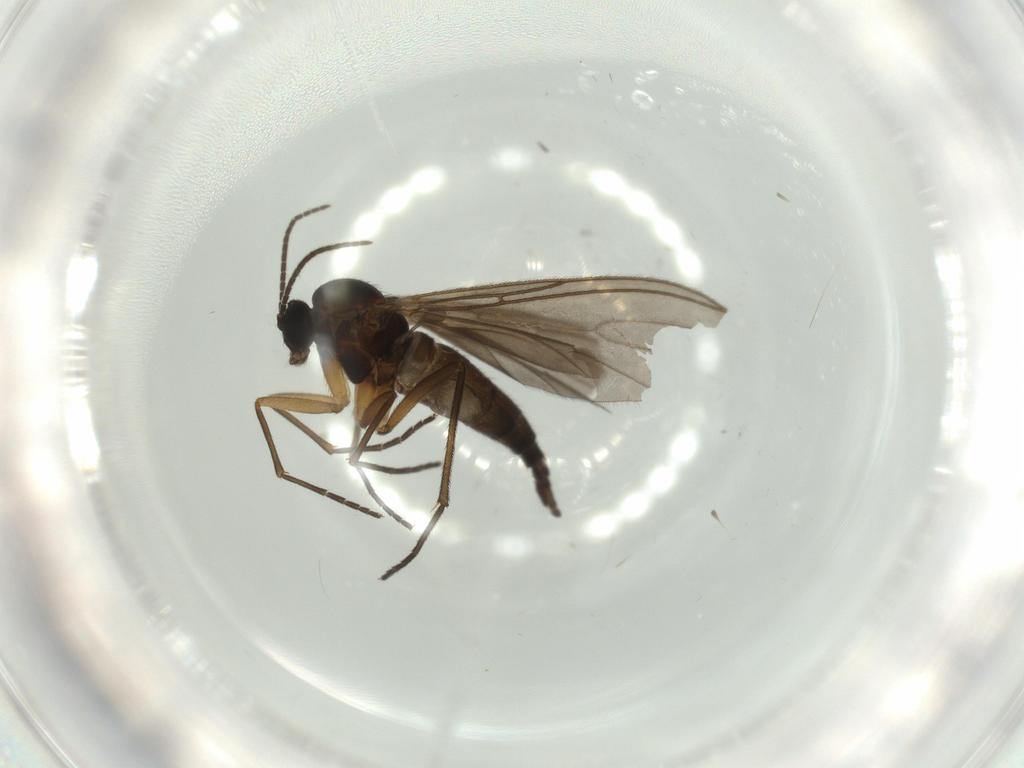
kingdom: Animalia
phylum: Arthropoda
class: Insecta
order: Diptera
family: Sciaridae
